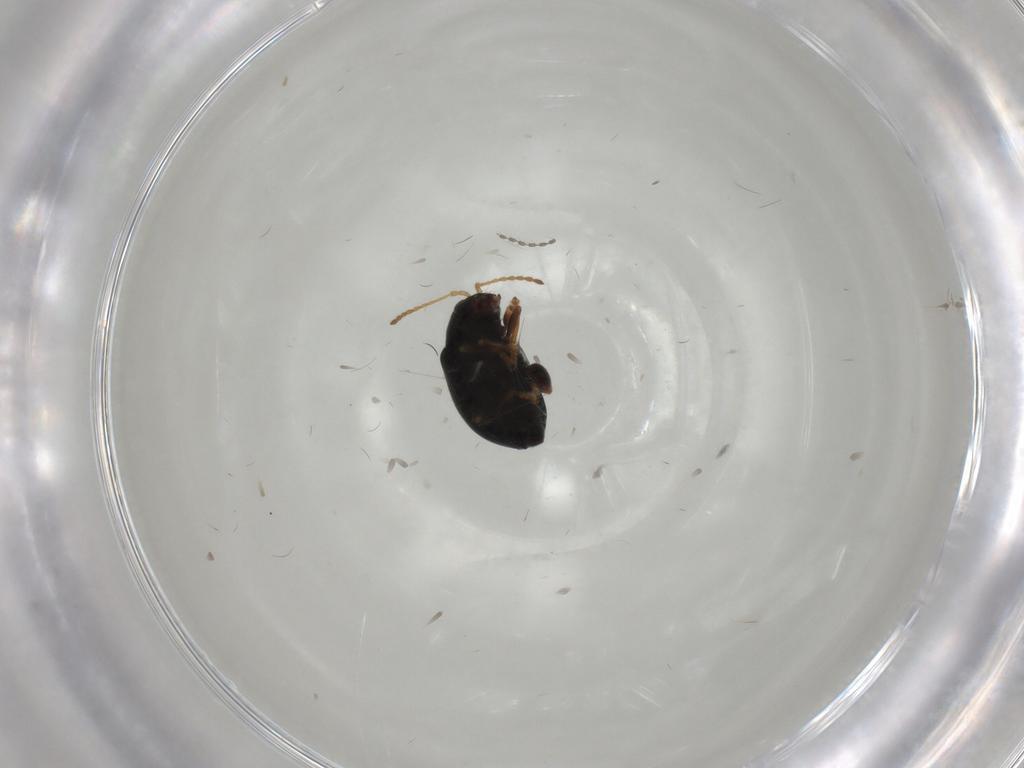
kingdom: Animalia
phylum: Arthropoda
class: Insecta
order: Coleoptera
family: Chrysomelidae
